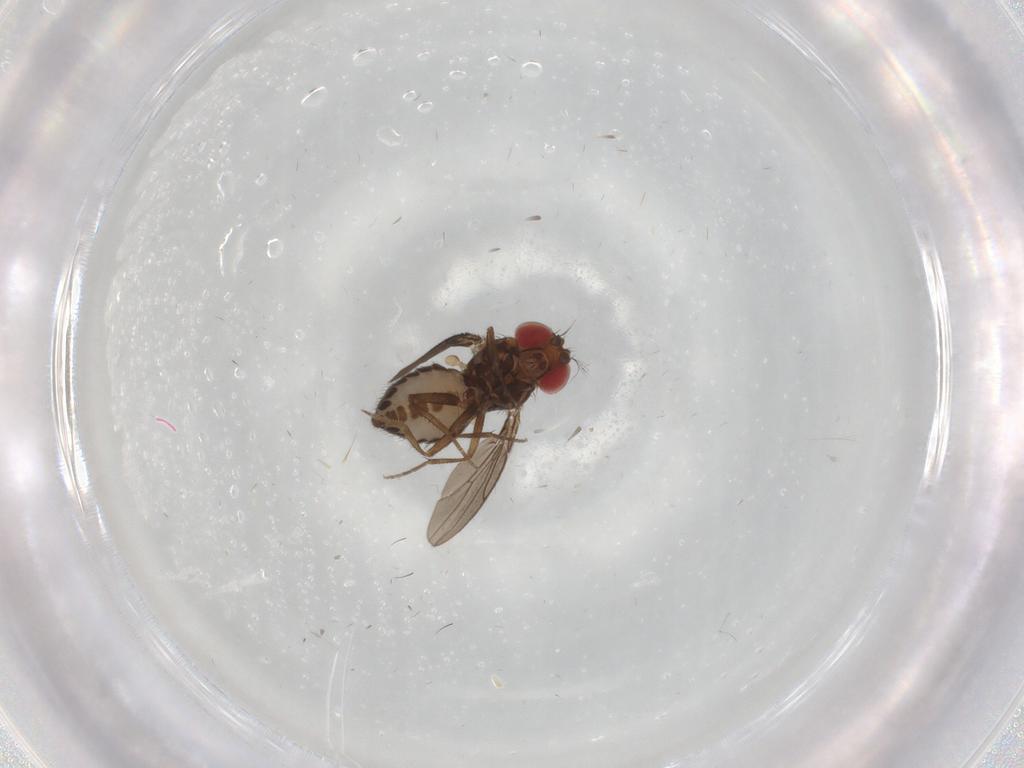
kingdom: Animalia
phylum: Arthropoda
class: Insecta
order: Diptera
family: Drosophilidae
